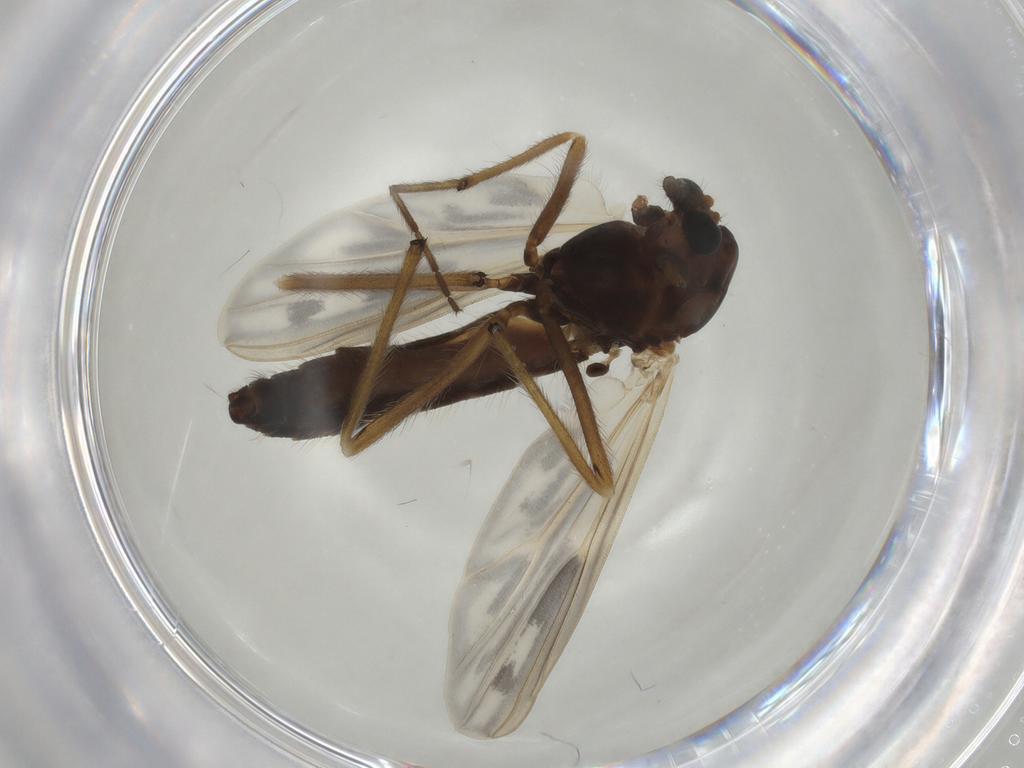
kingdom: Animalia
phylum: Arthropoda
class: Insecta
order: Diptera
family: Chironomidae
